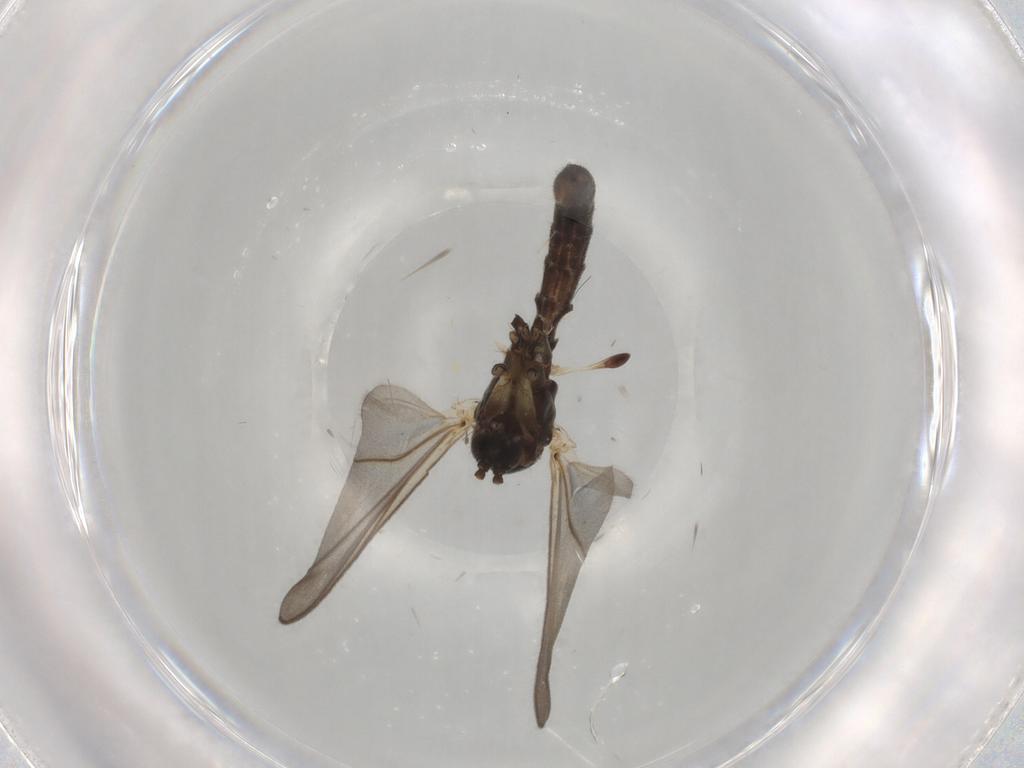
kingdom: Animalia
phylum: Arthropoda
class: Insecta
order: Diptera
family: Mycetophilidae
